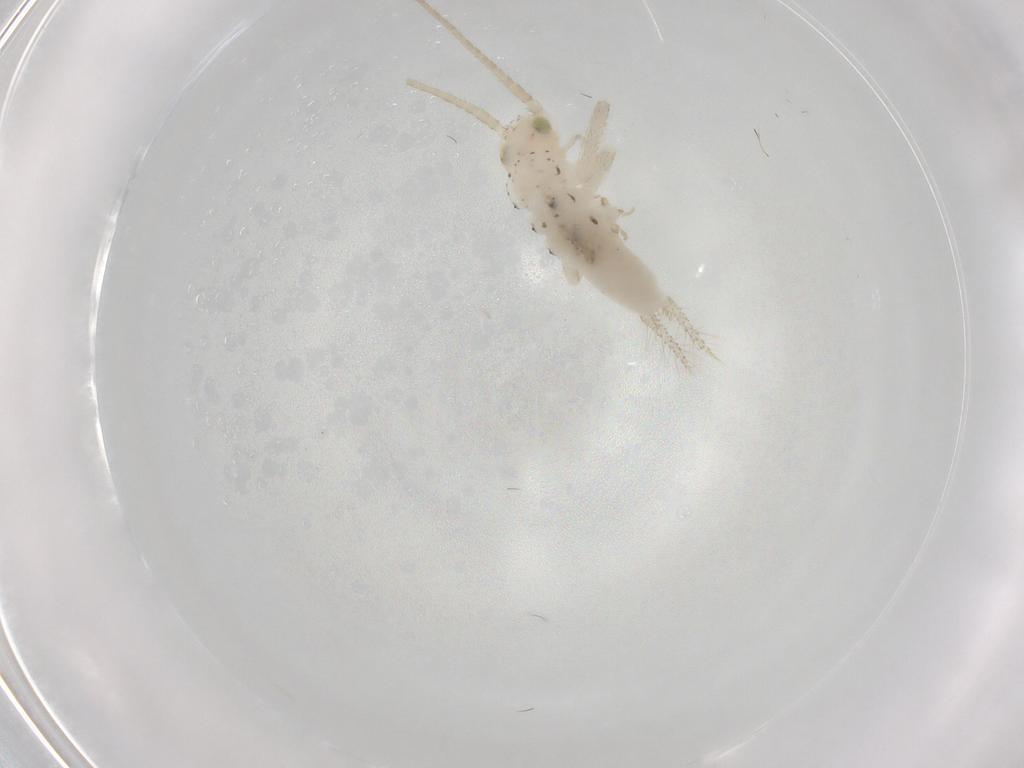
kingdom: Animalia
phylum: Arthropoda
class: Insecta
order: Orthoptera
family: Trigonidiidae
